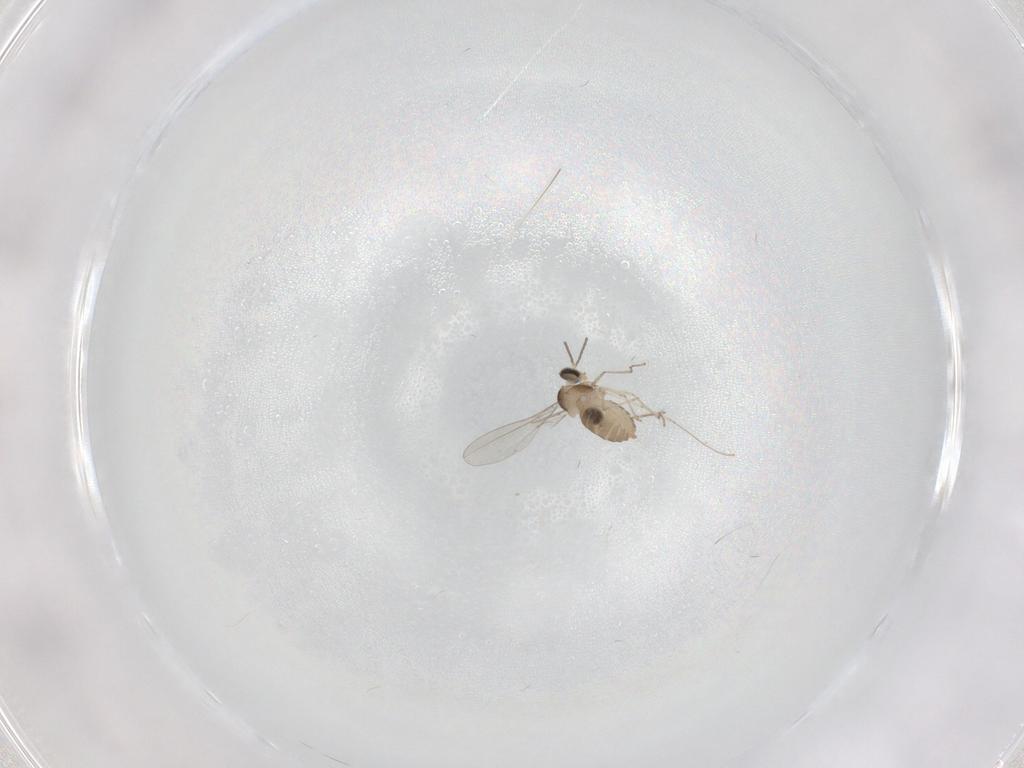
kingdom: Animalia
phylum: Arthropoda
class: Insecta
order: Diptera
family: Cecidomyiidae
